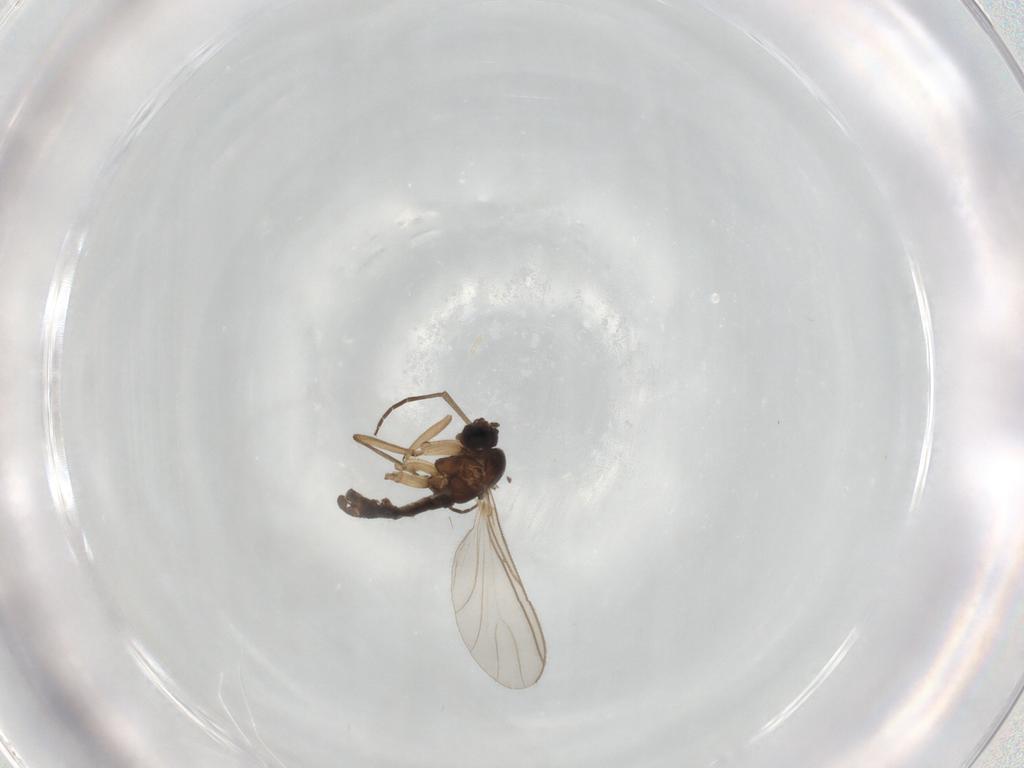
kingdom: Animalia
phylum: Arthropoda
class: Insecta
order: Diptera
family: Sciaridae
